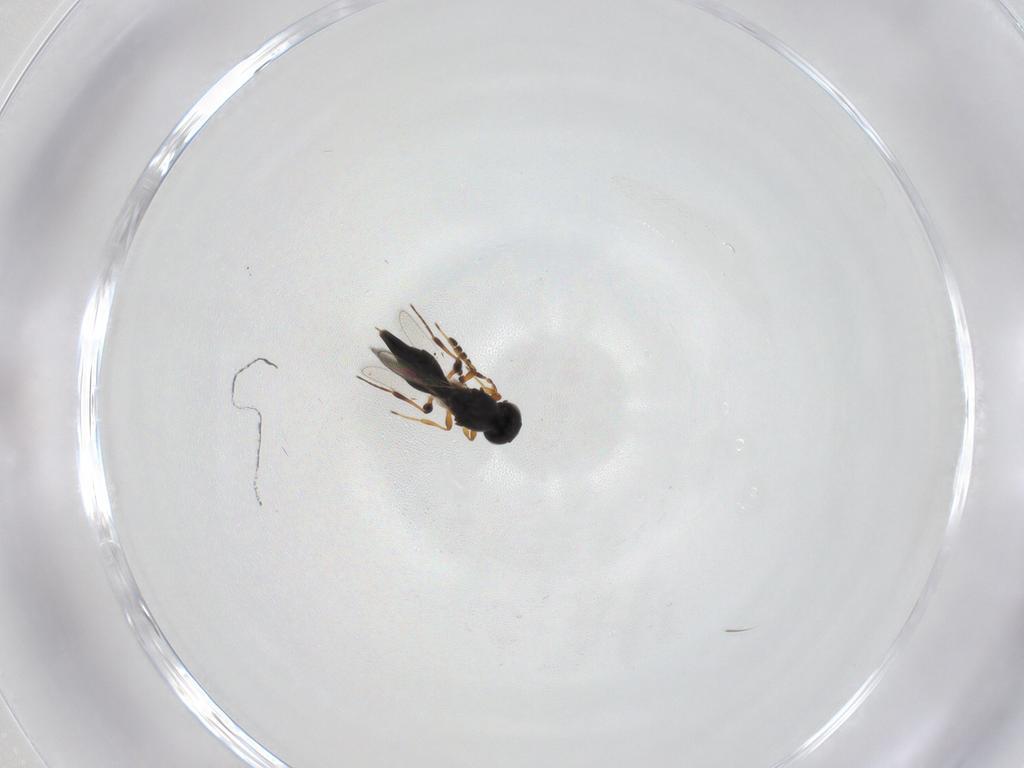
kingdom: Animalia
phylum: Arthropoda
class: Insecta
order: Hymenoptera
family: Platygastridae
